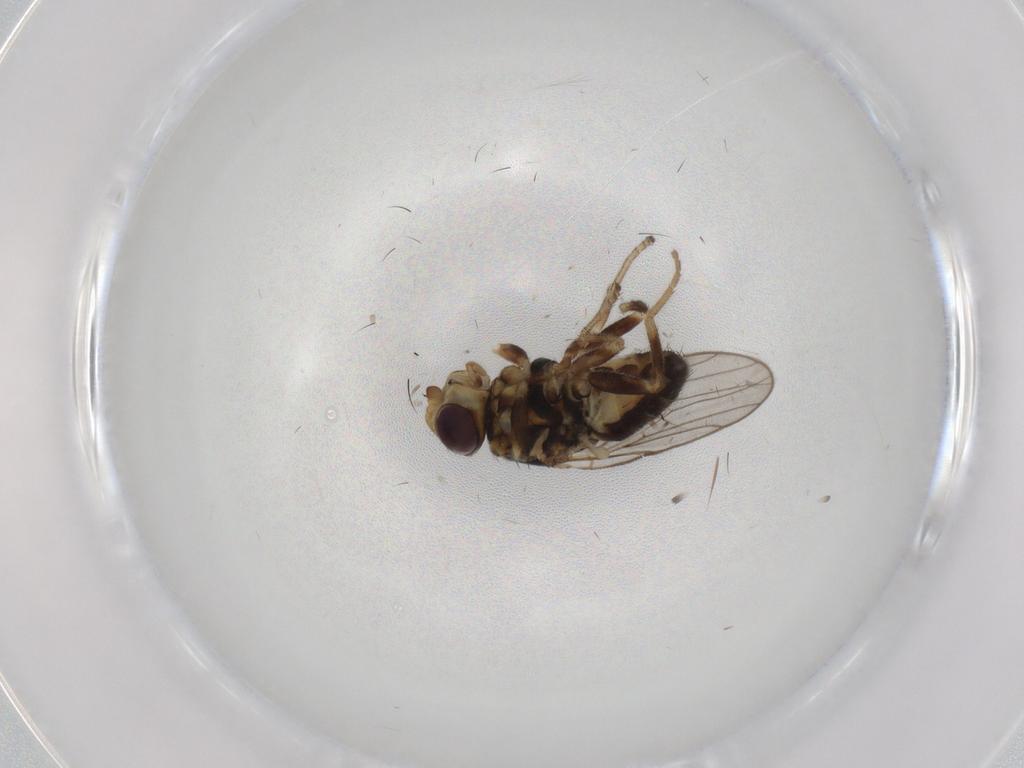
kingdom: Animalia
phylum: Arthropoda
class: Insecta
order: Diptera
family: Chloropidae
